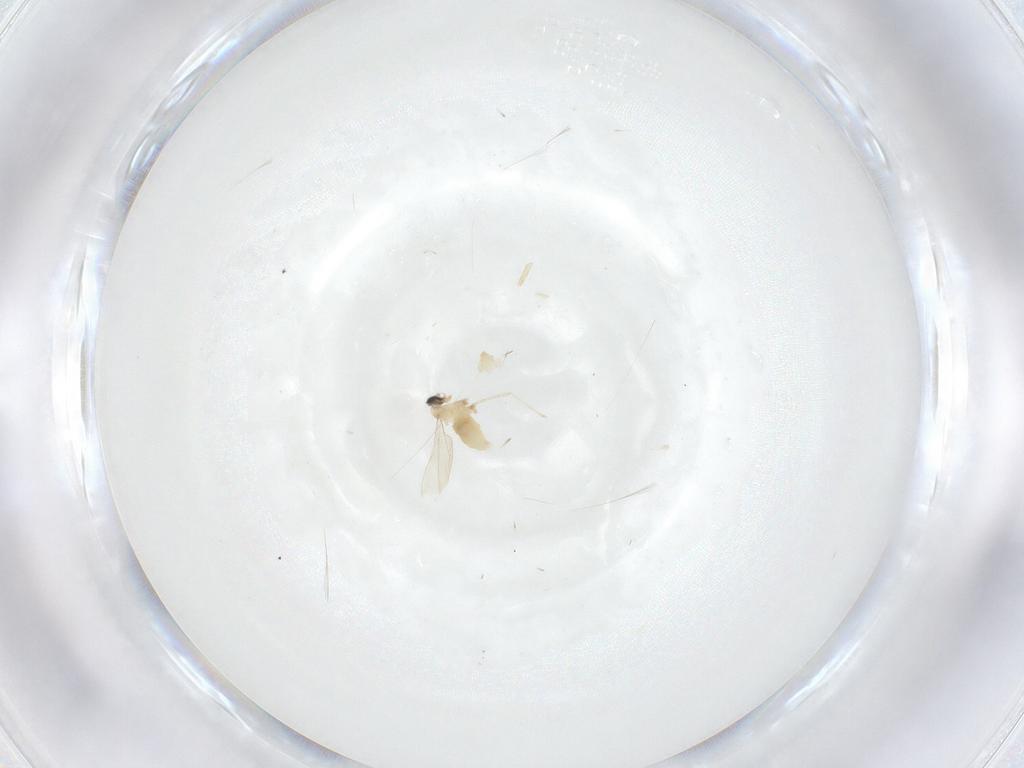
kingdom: Animalia
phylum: Arthropoda
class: Insecta
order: Diptera
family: Cecidomyiidae
